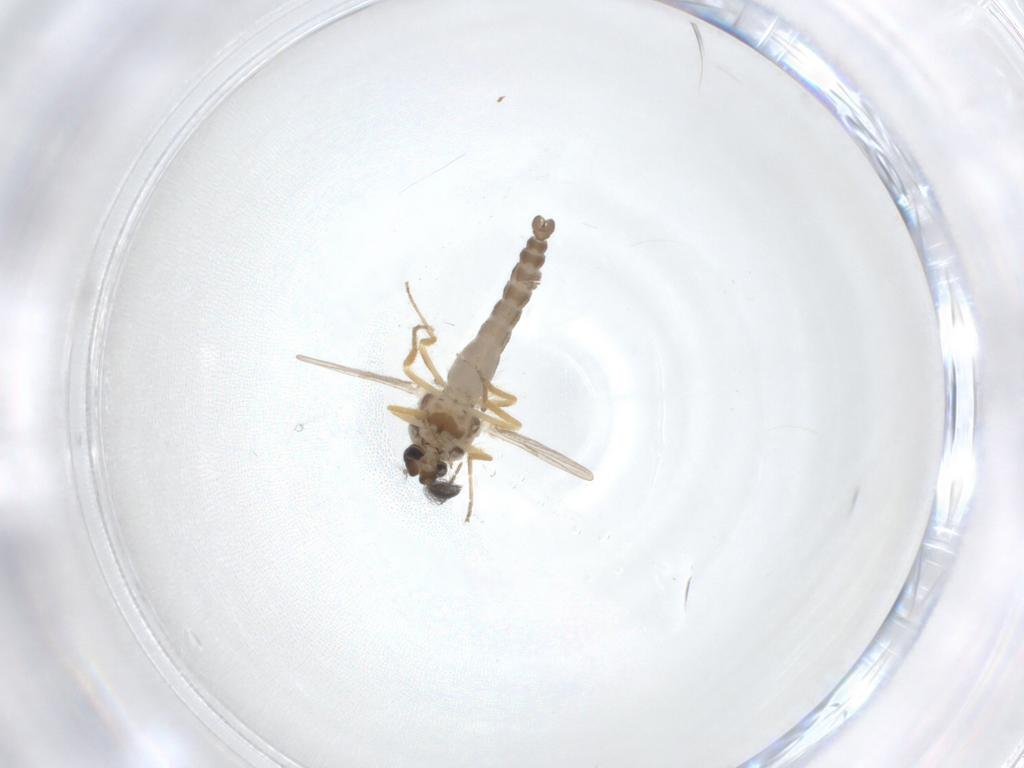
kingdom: Animalia
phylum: Arthropoda
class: Insecta
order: Diptera
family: Ceratopogonidae
